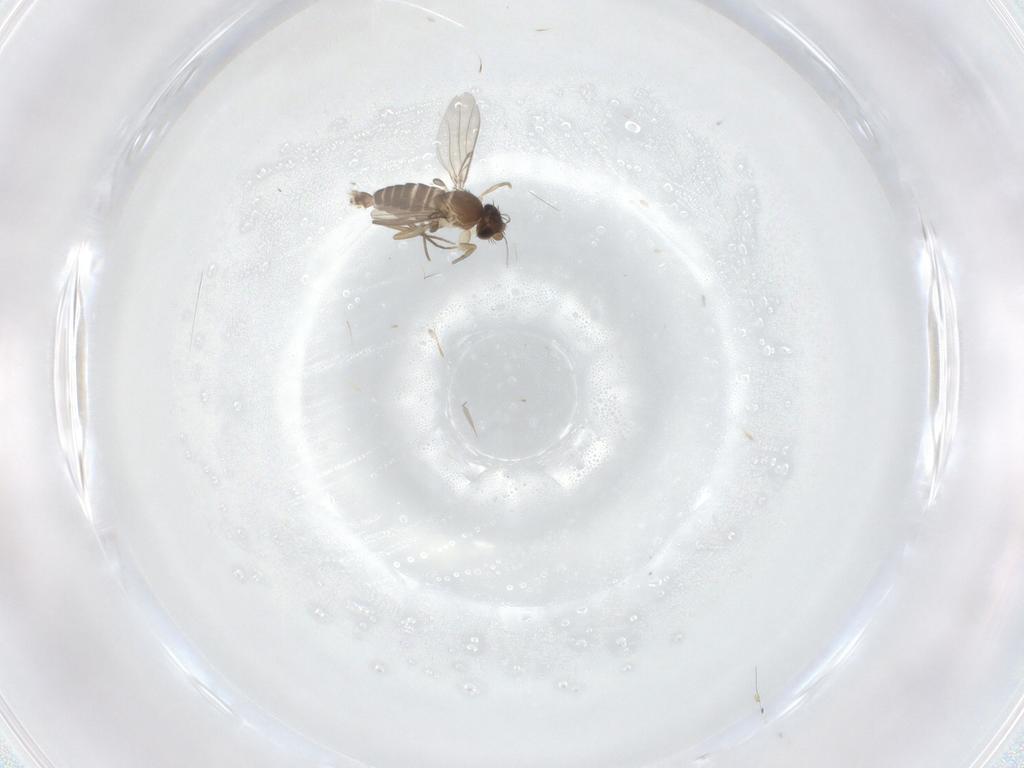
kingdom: Animalia
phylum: Arthropoda
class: Insecta
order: Diptera
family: Phoridae
